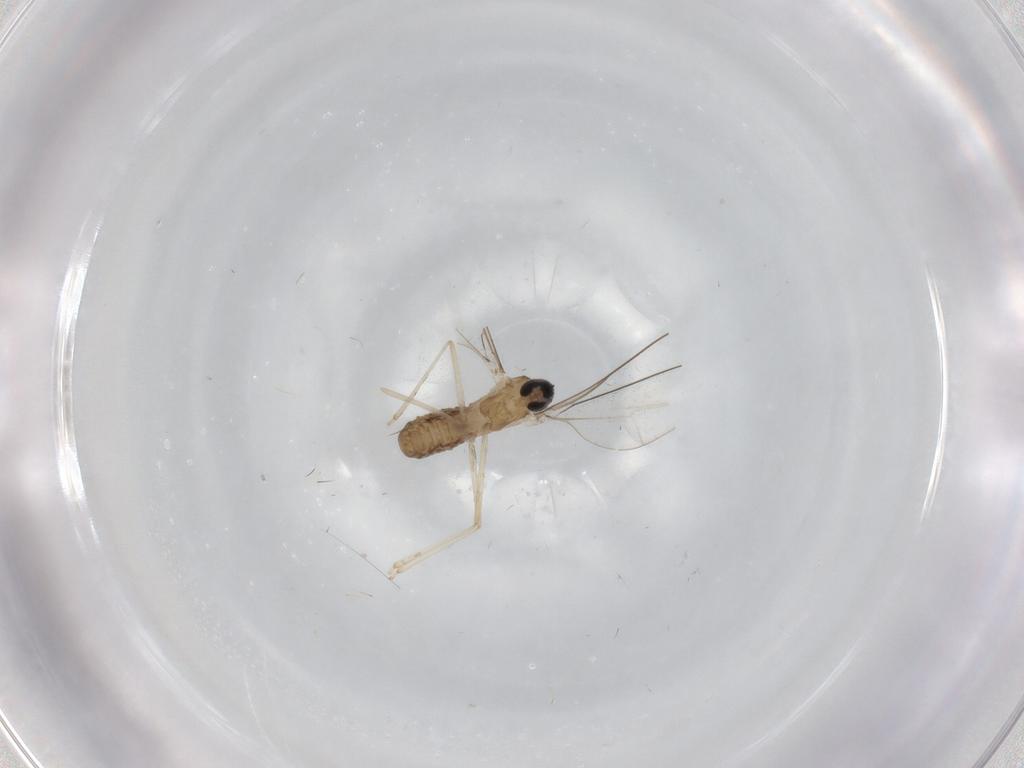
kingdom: Animalia
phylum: Arthropoda
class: Insecta
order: Diptera
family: Cecidomyiidae
